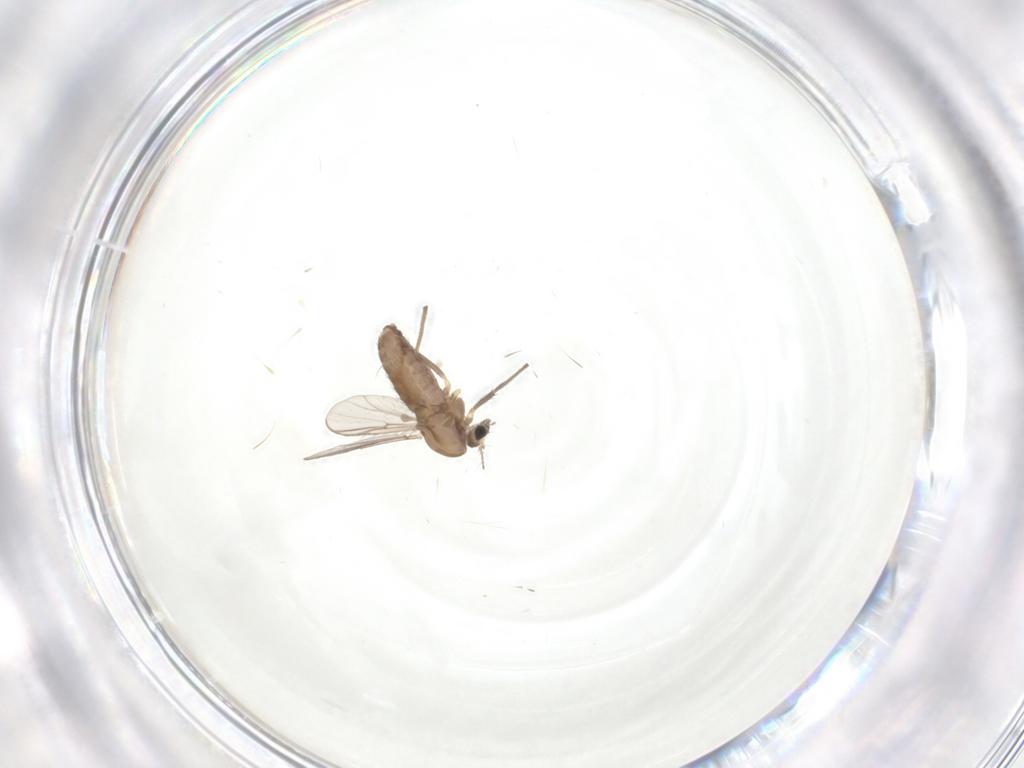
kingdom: Animalia
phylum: Arthropoda
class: Insecta
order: Diptera
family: Chironomidae
